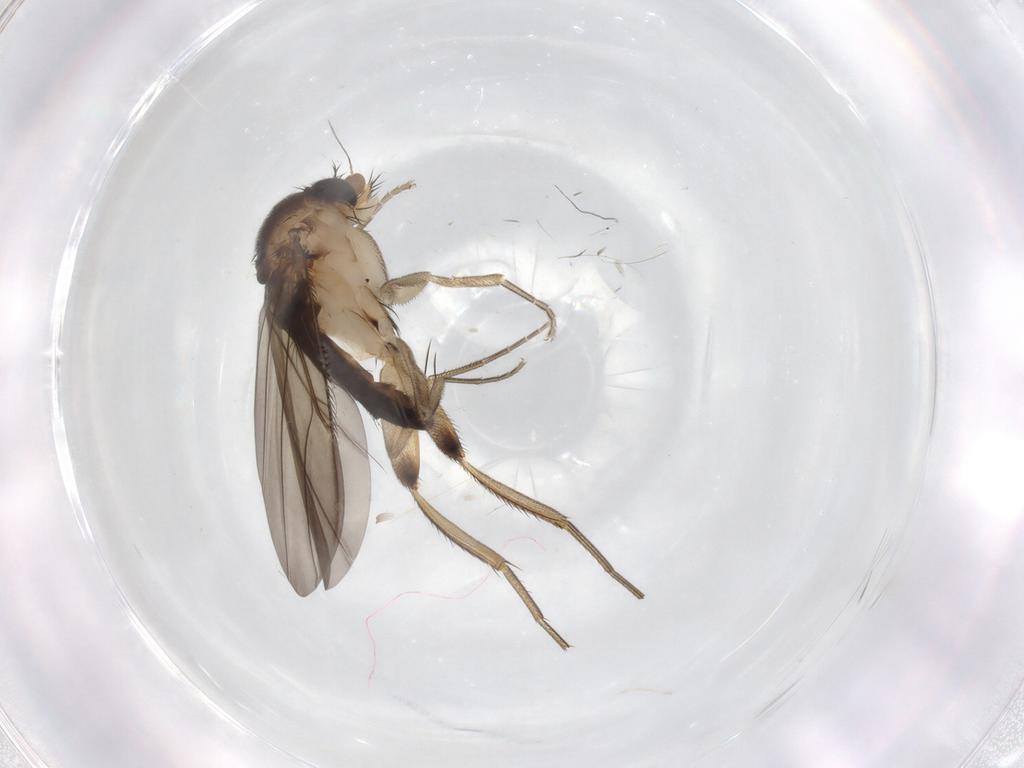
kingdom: Animalia
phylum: Arthropoda
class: Insecta
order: Diptera
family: Phoridae
